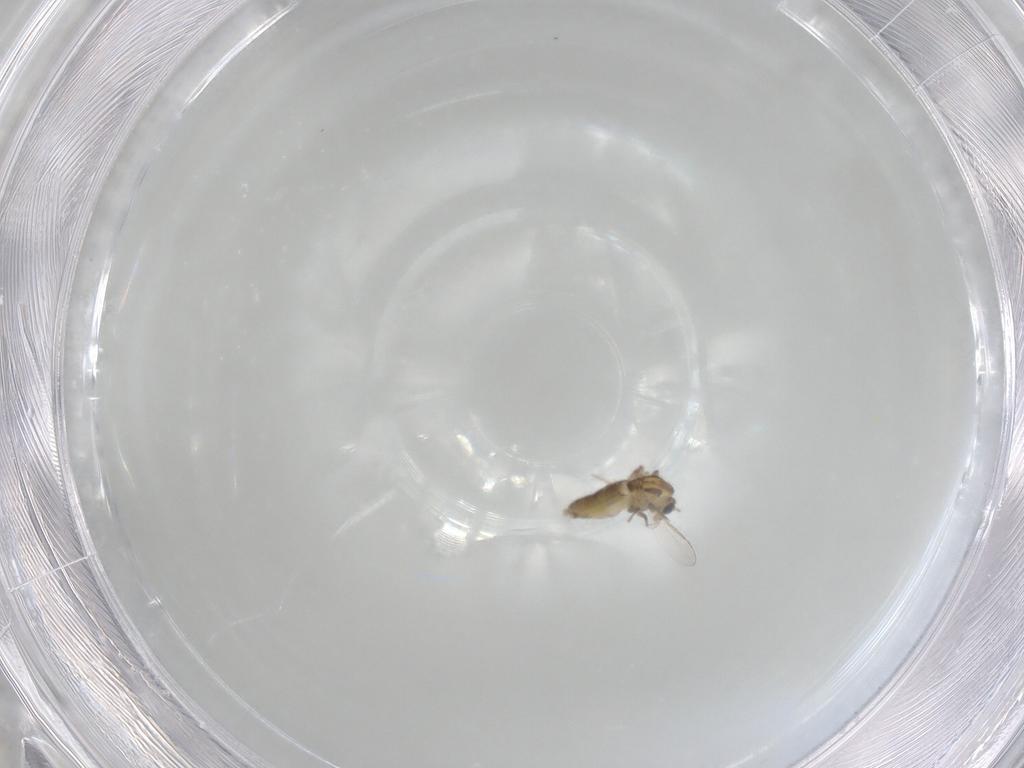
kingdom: Animalia
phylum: Arthropoda
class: Insecta
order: Diptera
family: Chironomidae
